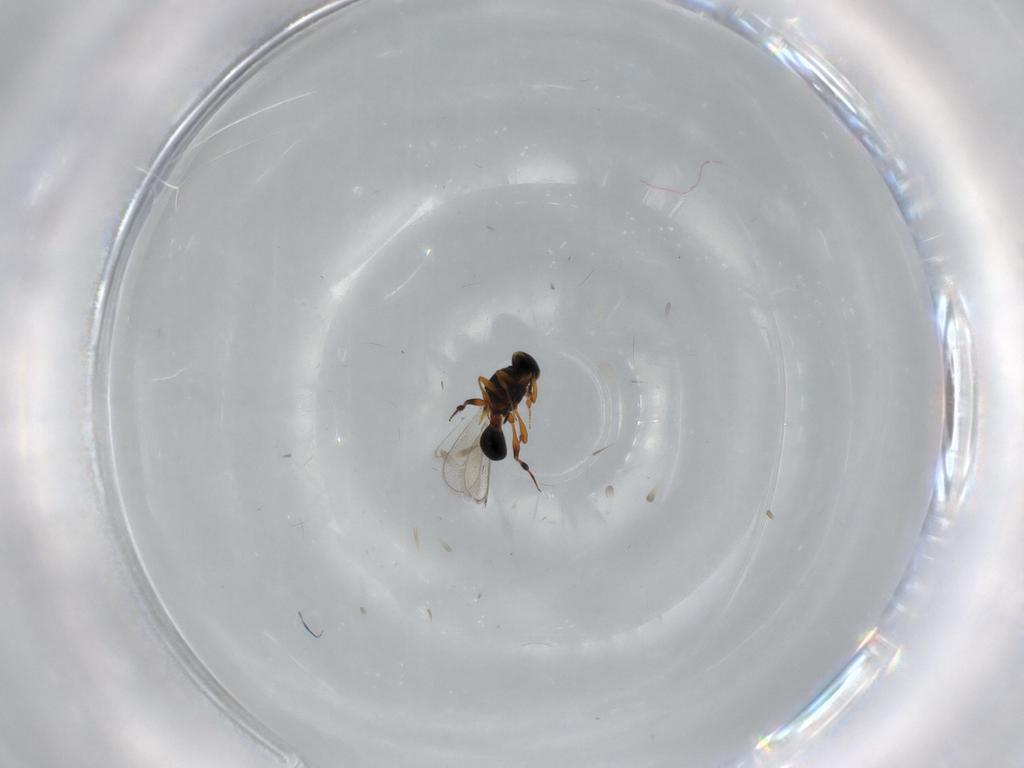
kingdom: Animalia
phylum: Arthropoda
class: Insecta
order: Hymenoptera
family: Platygastridae
